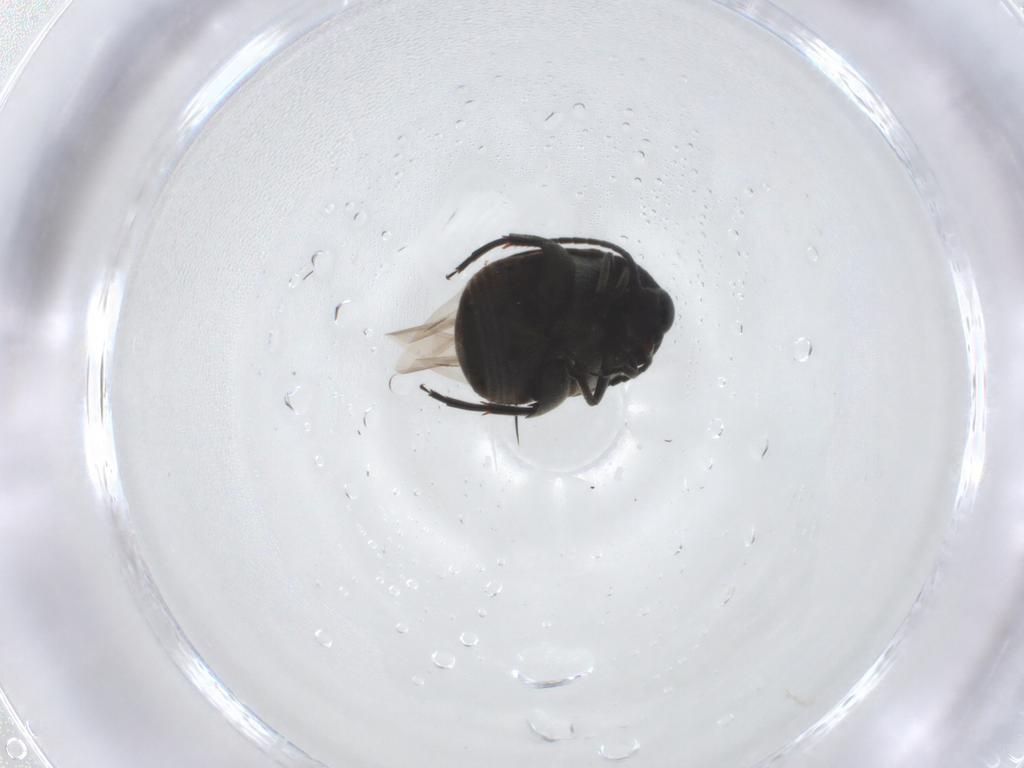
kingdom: Animalia
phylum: Arthropoda
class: Insecta
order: Coleoptera
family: Chrysomelidae
